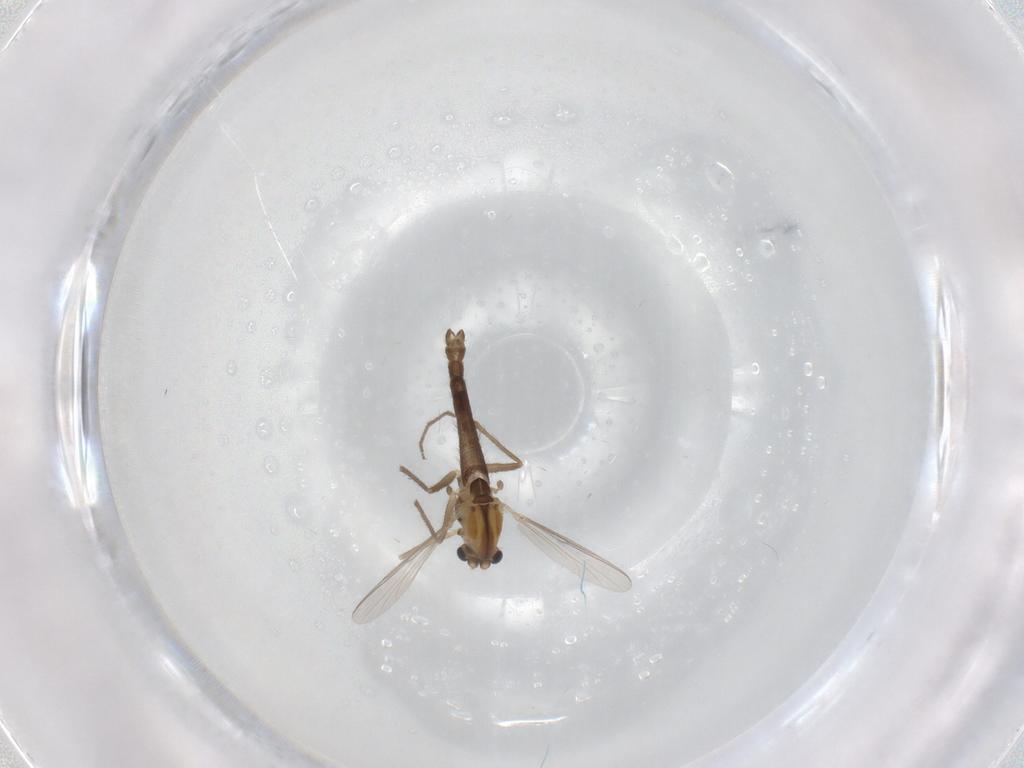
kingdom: Animalia
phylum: Arthropoda
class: Insecta
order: Diptera
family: Chironomidae
